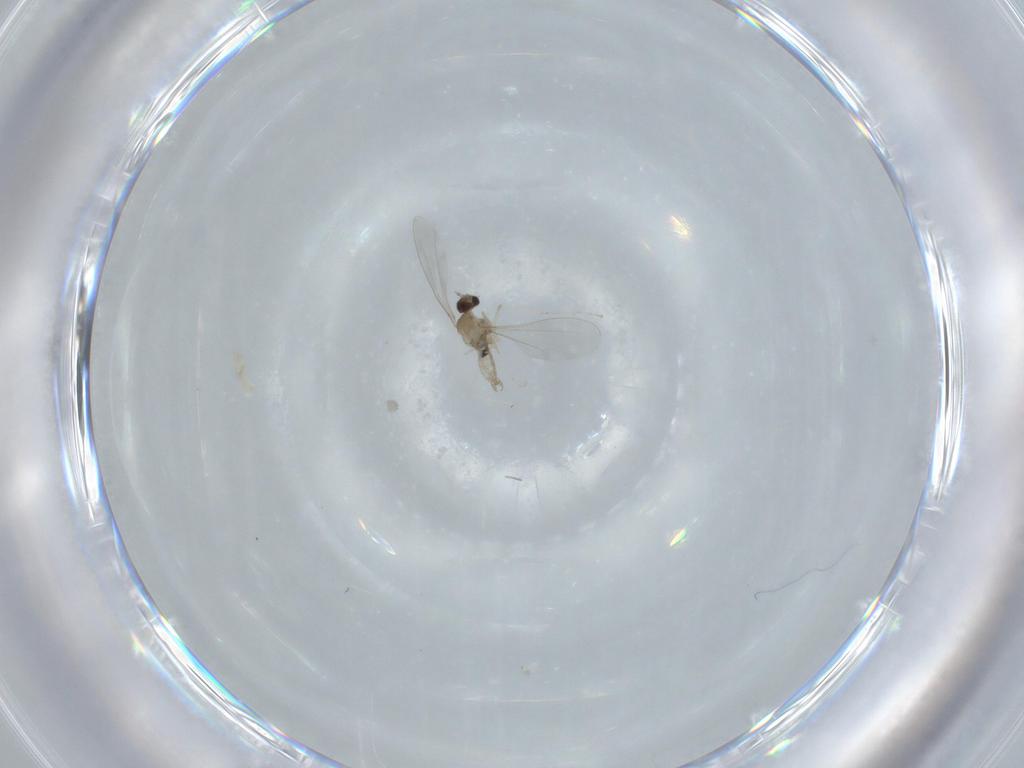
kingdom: Animalia
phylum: Arthropoda
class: Insecta
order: Diptera
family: Cecidomyiidae
